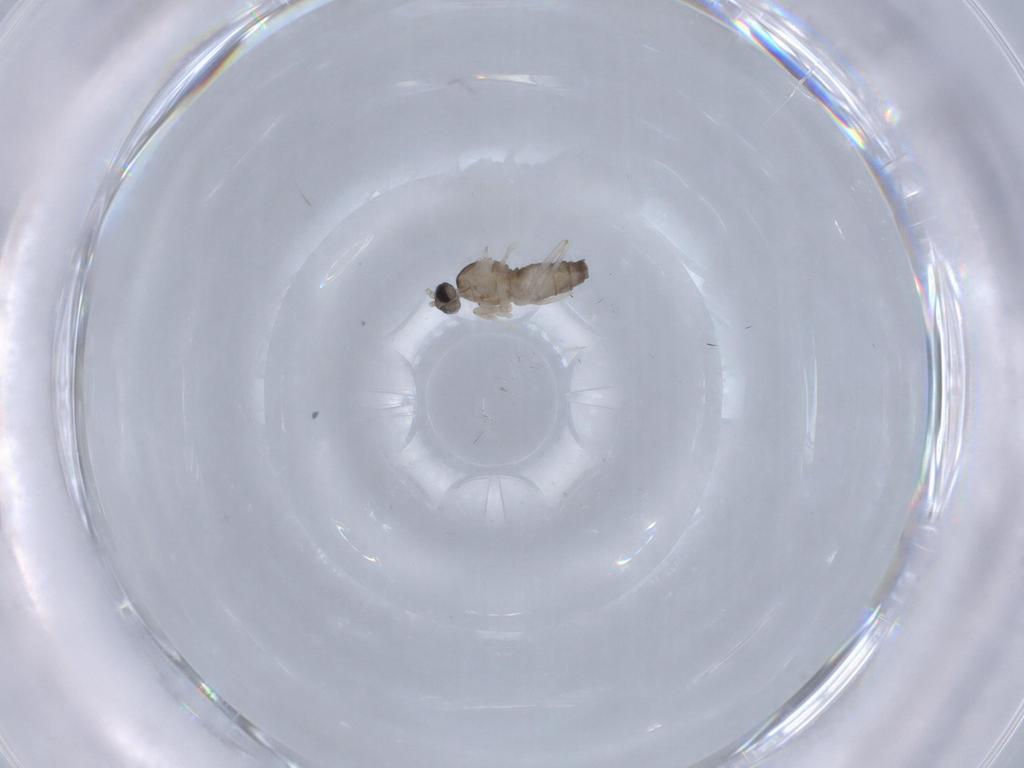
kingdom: Animalia
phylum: Arthropoda
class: Insecta
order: Diptera
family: Cecidomyiidae
